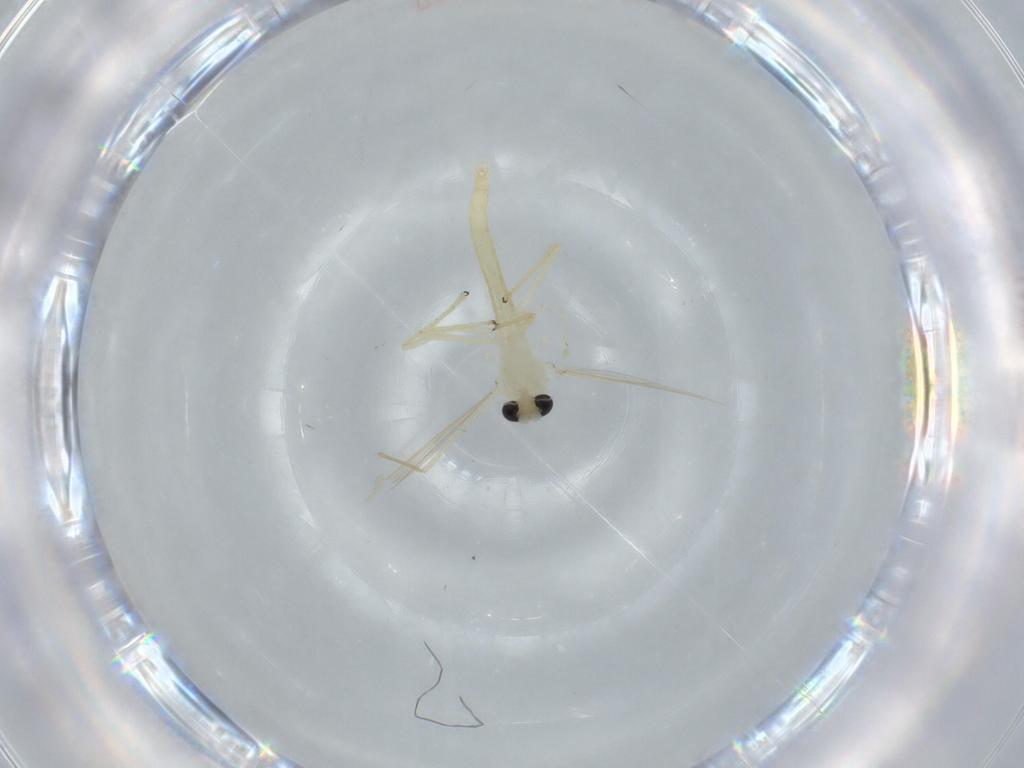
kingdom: Animalia
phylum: Arthropoda
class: Insecta
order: Diptera
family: Chironomidae
